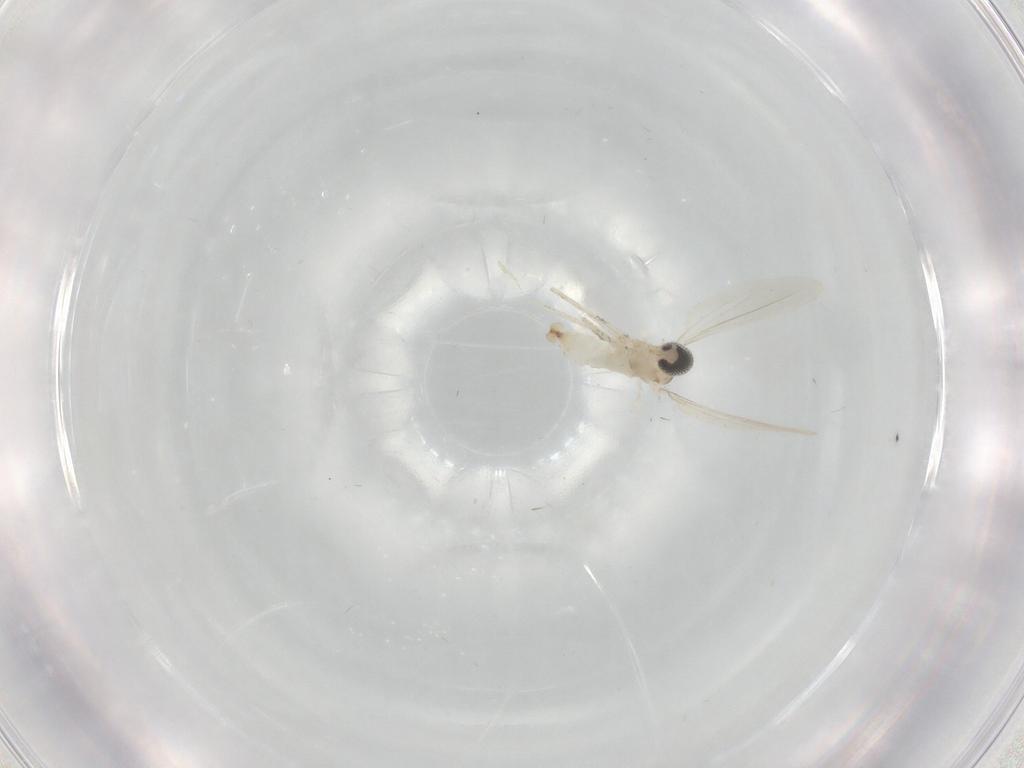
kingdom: Animalia
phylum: Arthropoda
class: Insecta
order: Diptera
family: Cecidomyiidae
